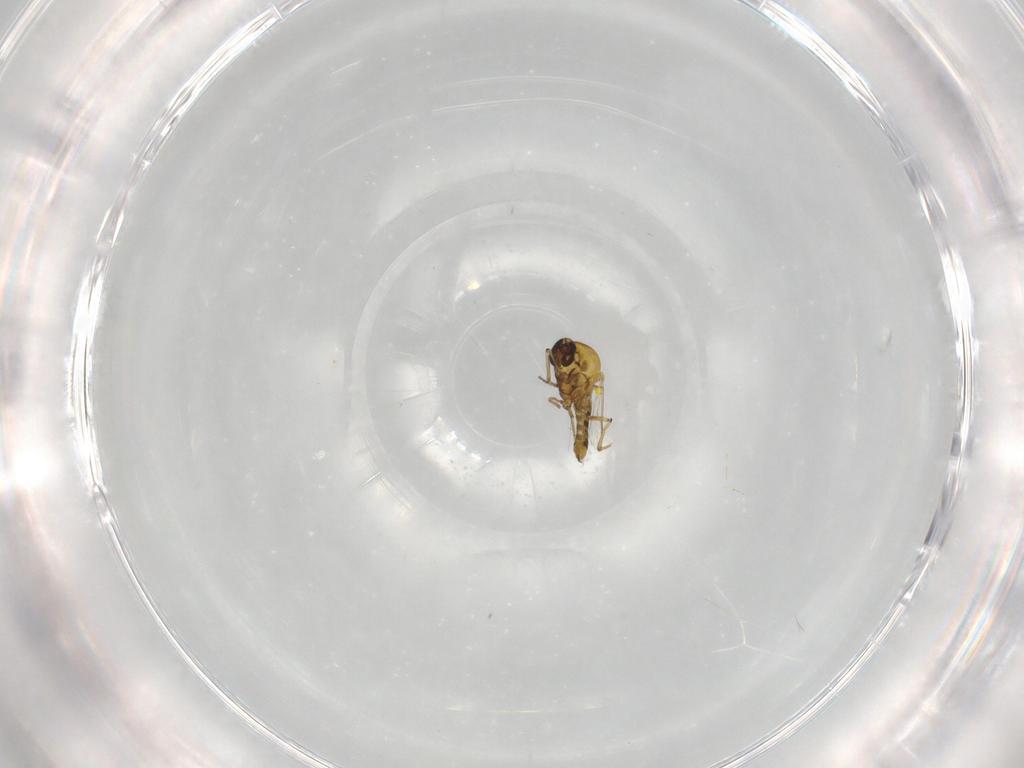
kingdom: Animalia
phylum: Arthropoda
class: Insecta
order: Diptera
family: Ceratopogonidae
